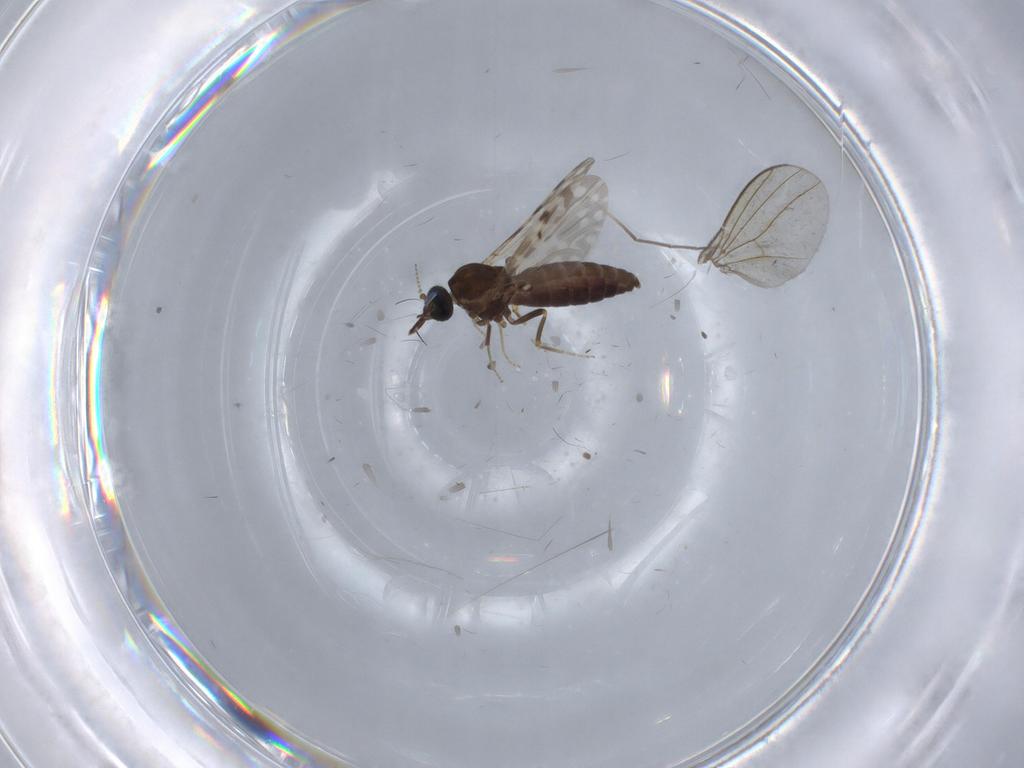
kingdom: Animalia
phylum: Arthropoda
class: Insecta
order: Diptera
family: Ceratopogonidae
